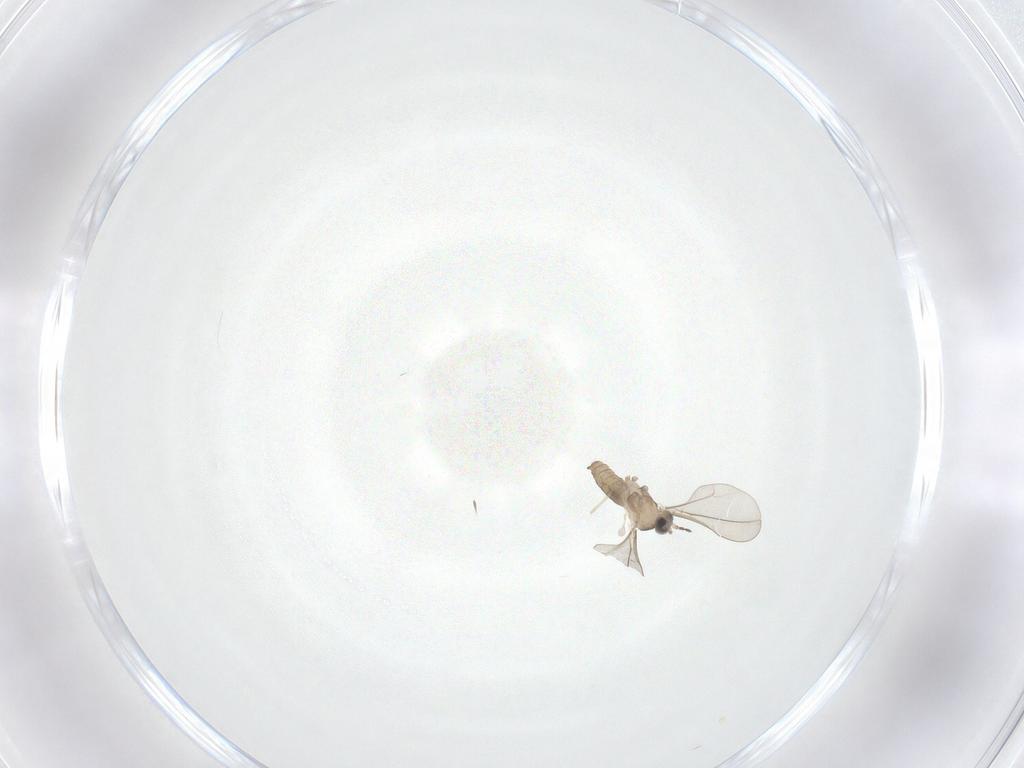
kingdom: Animalia
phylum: Arthropoda
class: Insecta
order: Diptera
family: Cecidomyiidae
